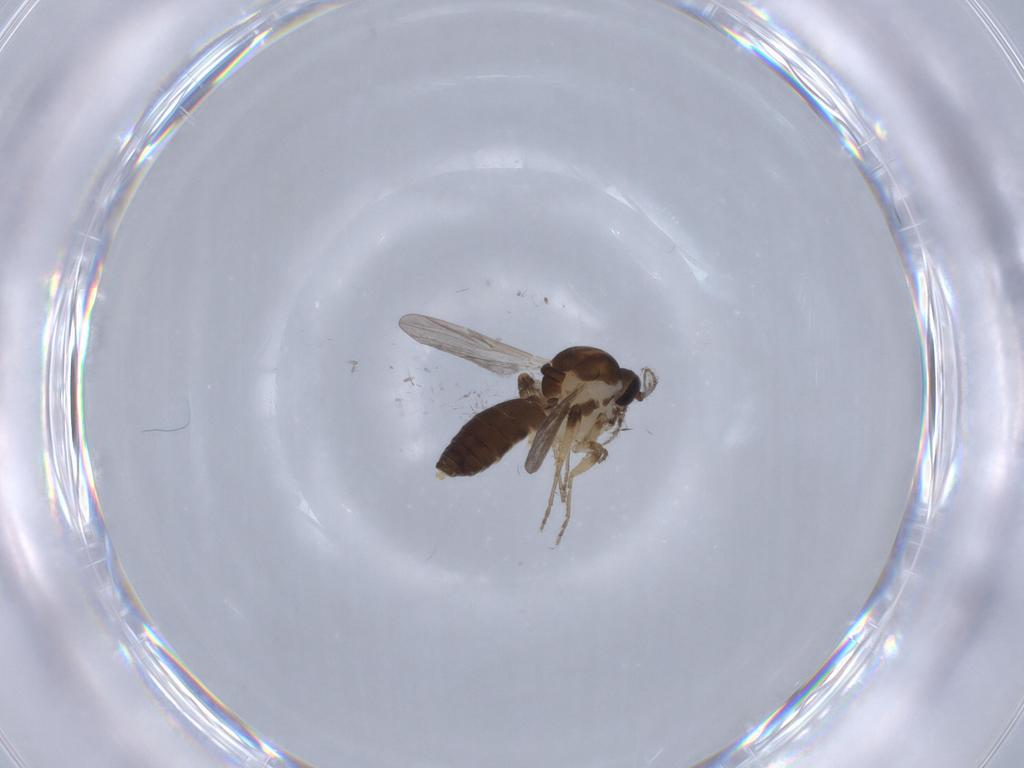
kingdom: Animalia
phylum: Arthropoda
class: Insecta
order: Diptera
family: Ceratopogonidae
